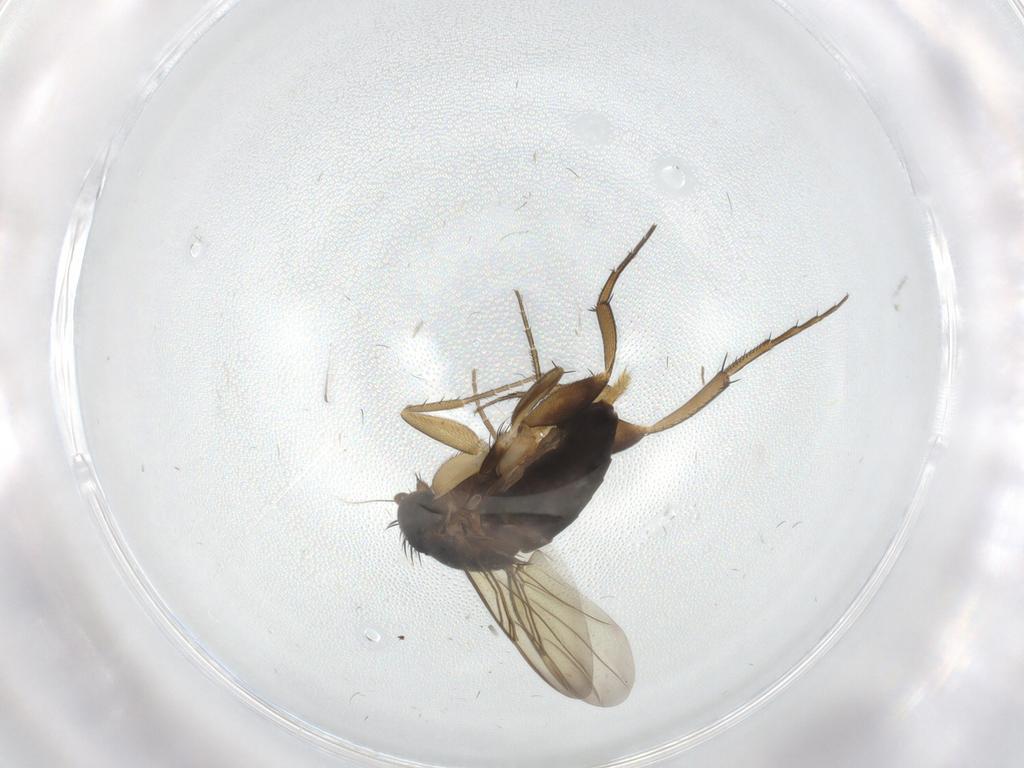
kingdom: Animalia
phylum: Arthropoda
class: Insecta
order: Diptera
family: Phoridae
